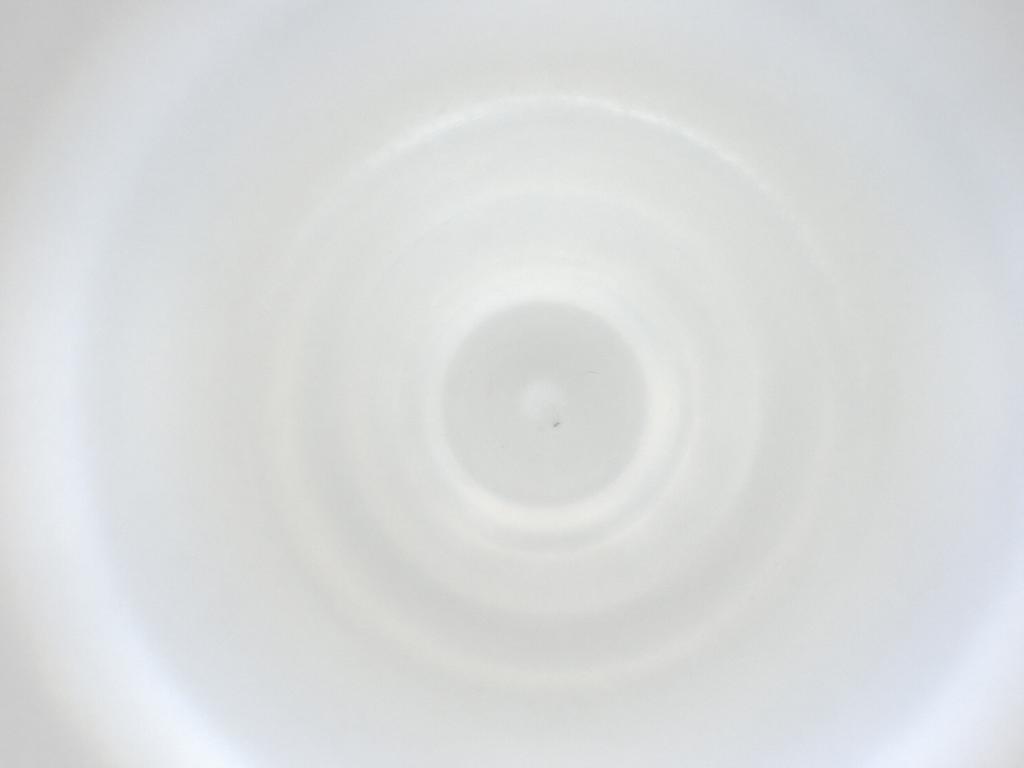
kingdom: Animalia
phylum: Arthropoda
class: Insecta
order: Diptera
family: Cecidomyiidae
